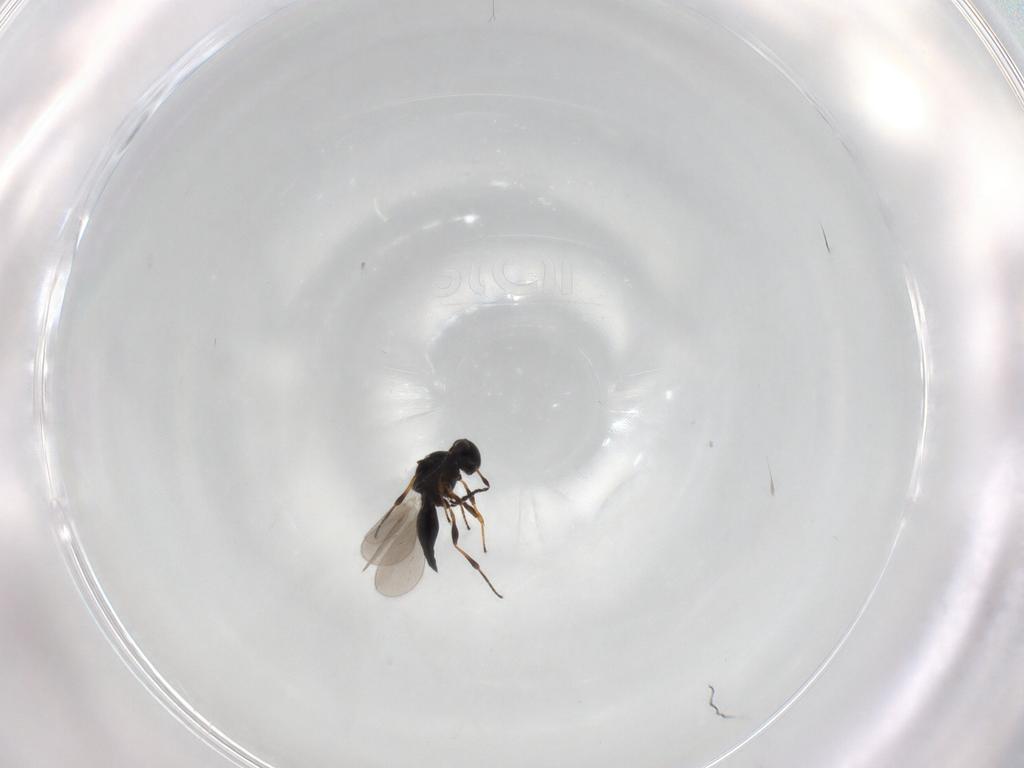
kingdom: Animalia
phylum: Arthropoda
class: Insecta
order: Hymenoptera
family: Platygastridae
